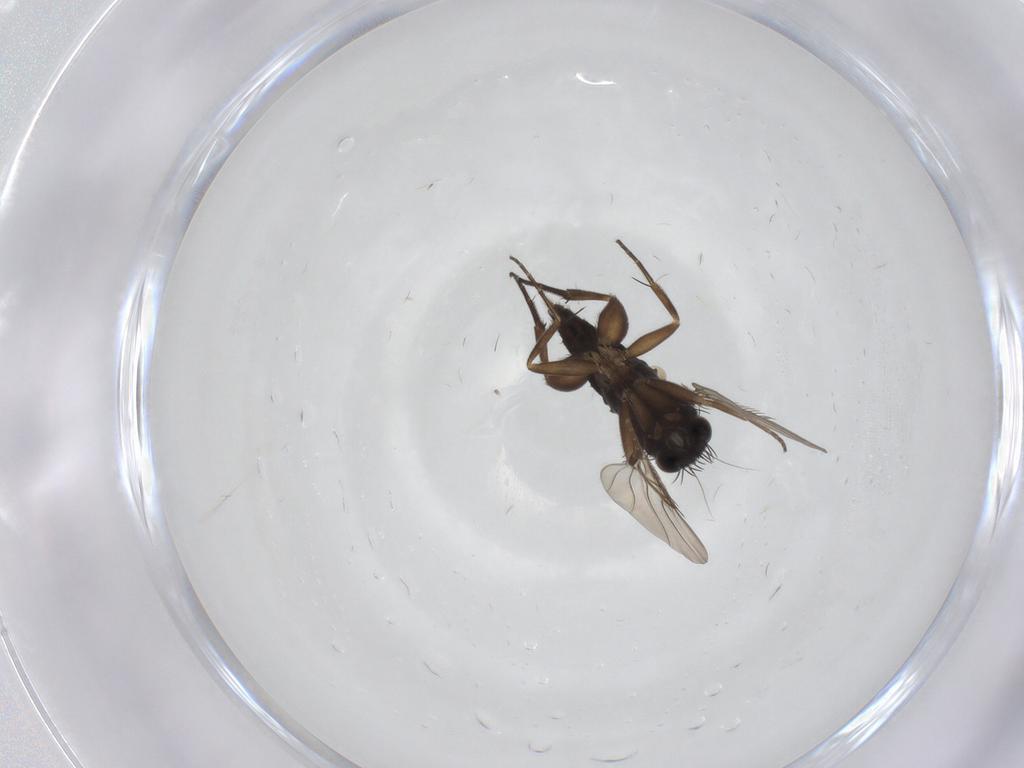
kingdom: Animalia
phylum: Arthropoda
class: Insecta
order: Diptera
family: Phoridae
